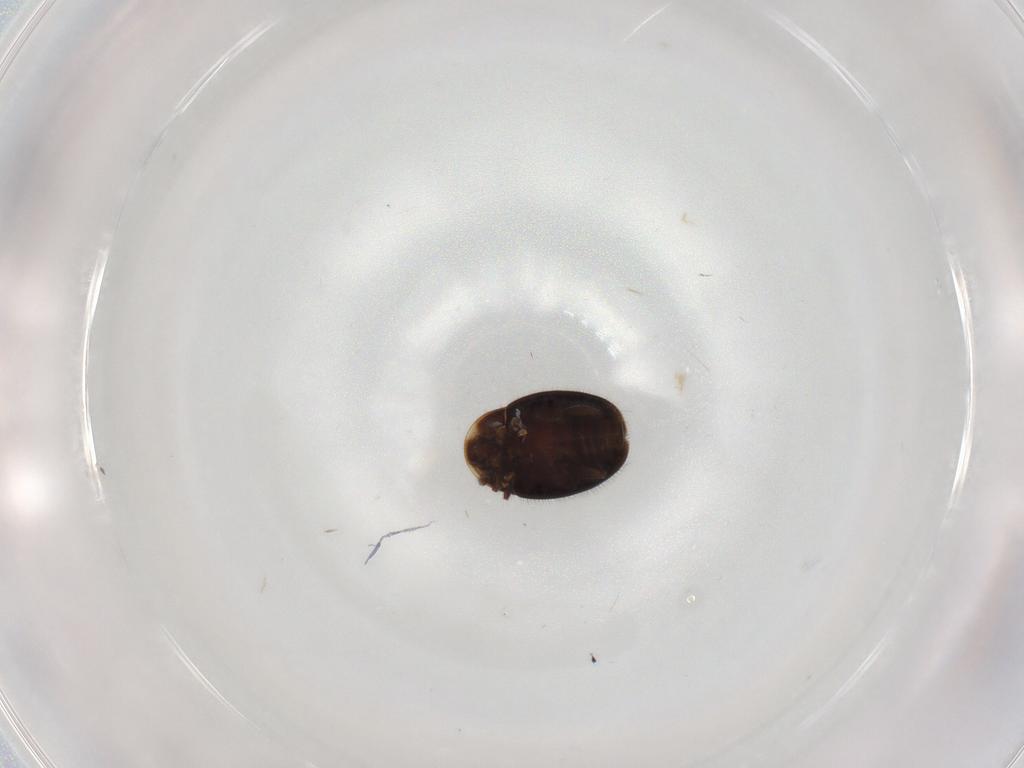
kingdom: Animalia
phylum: Arthropoda
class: Insecta
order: Coleoptera
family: Corylophidae
